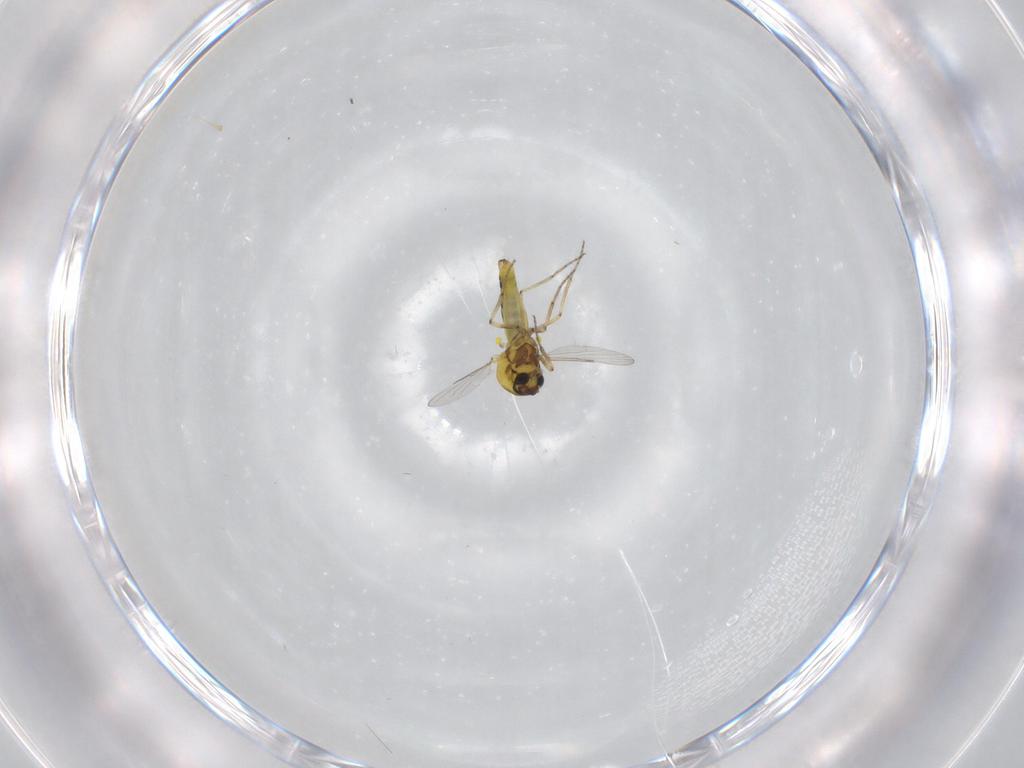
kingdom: Animalia
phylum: Arthropoda
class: Insecta
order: Diptera
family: Ceratopogonidae
